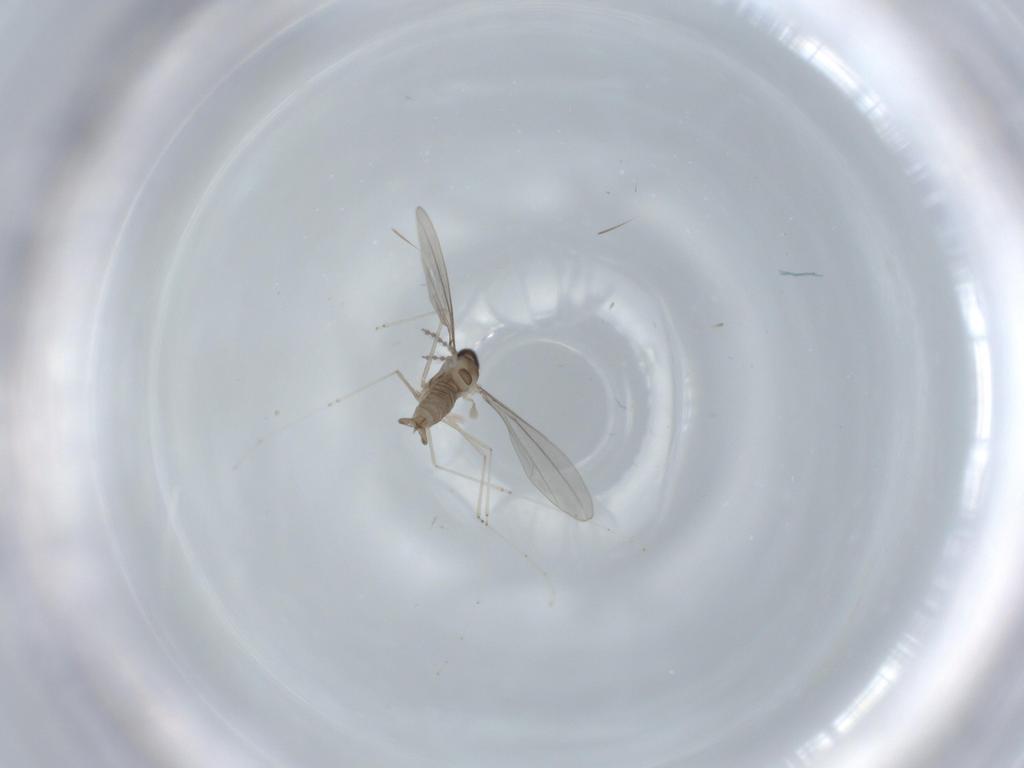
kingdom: Animalia
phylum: Arthropoda
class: Insecta
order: Diptera
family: Cecidomyiidae
